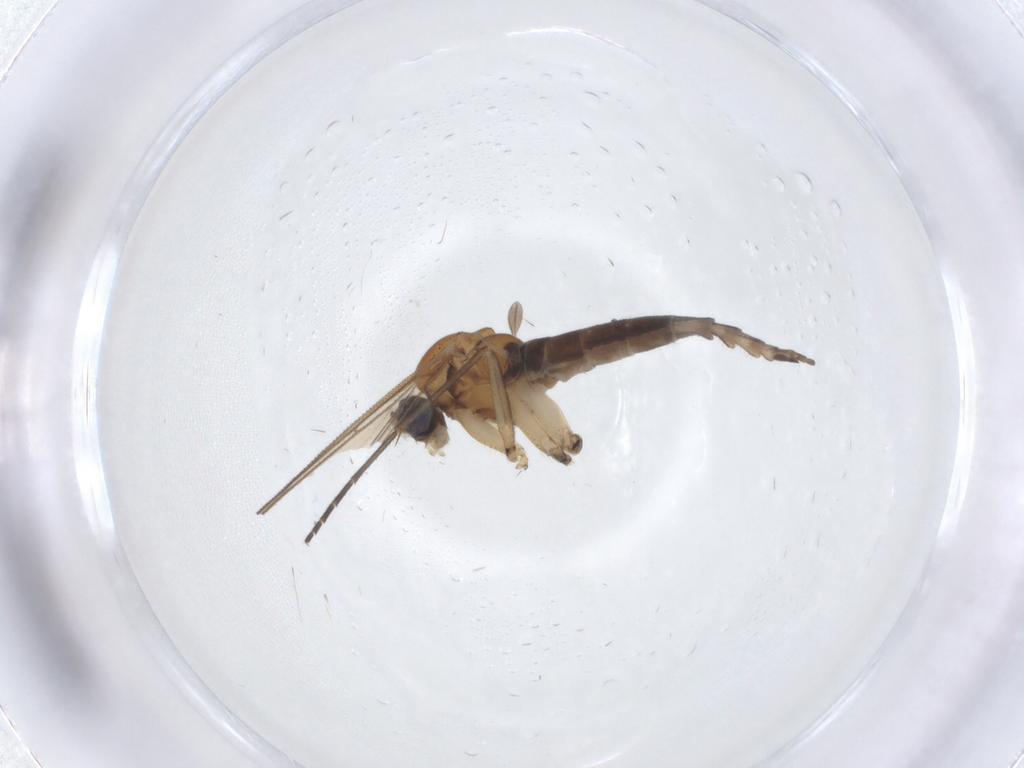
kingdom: Animalia
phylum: Arthropoda
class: Insecta
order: Diptera
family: Sciaridae
